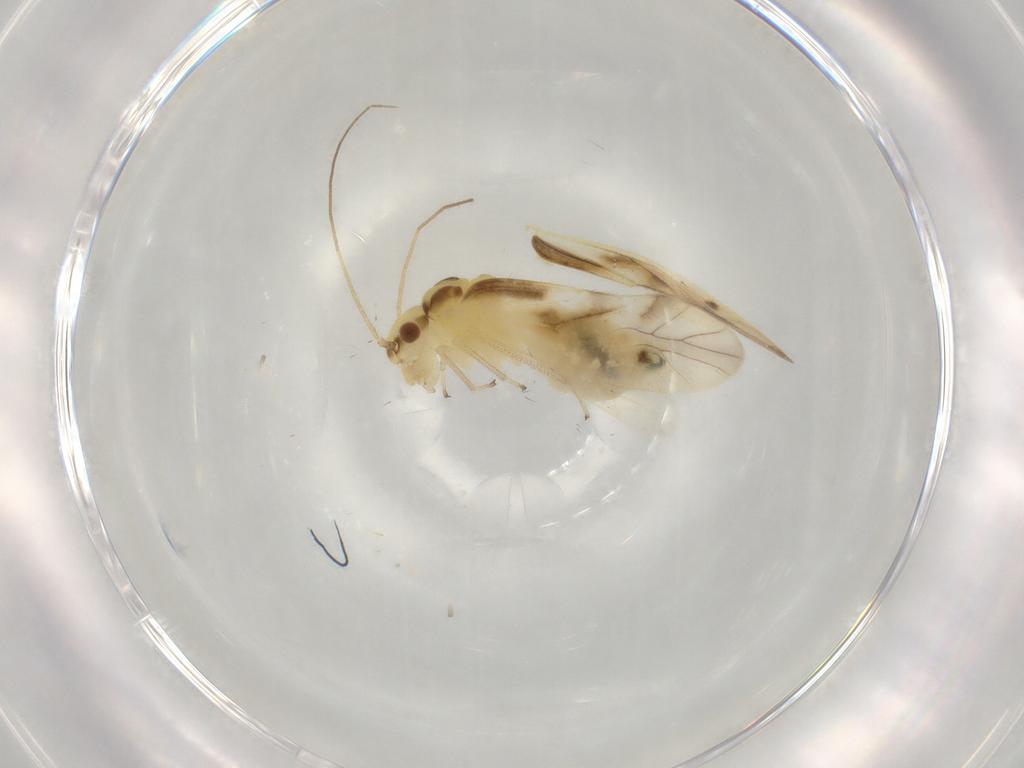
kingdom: Animalia
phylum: Arthropoda
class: Insecta
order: Psocodea
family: Caeciliusidae
